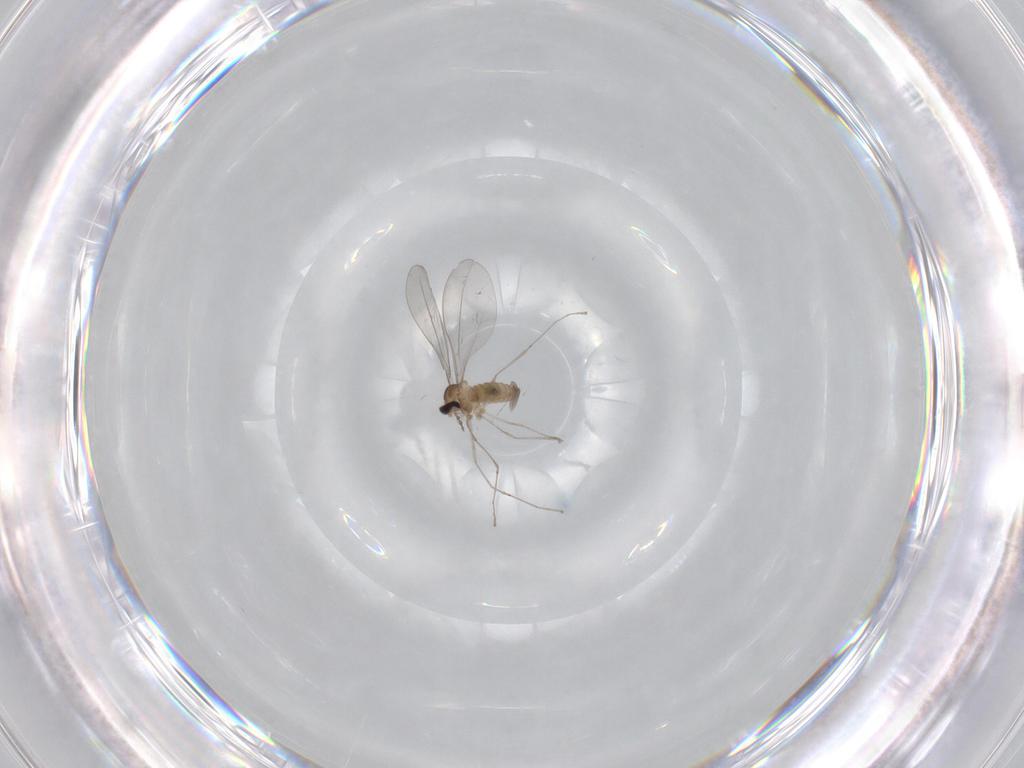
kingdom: Animalia
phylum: Arthropoda
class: Insecta
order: Diptera
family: Cecidomyiidae
